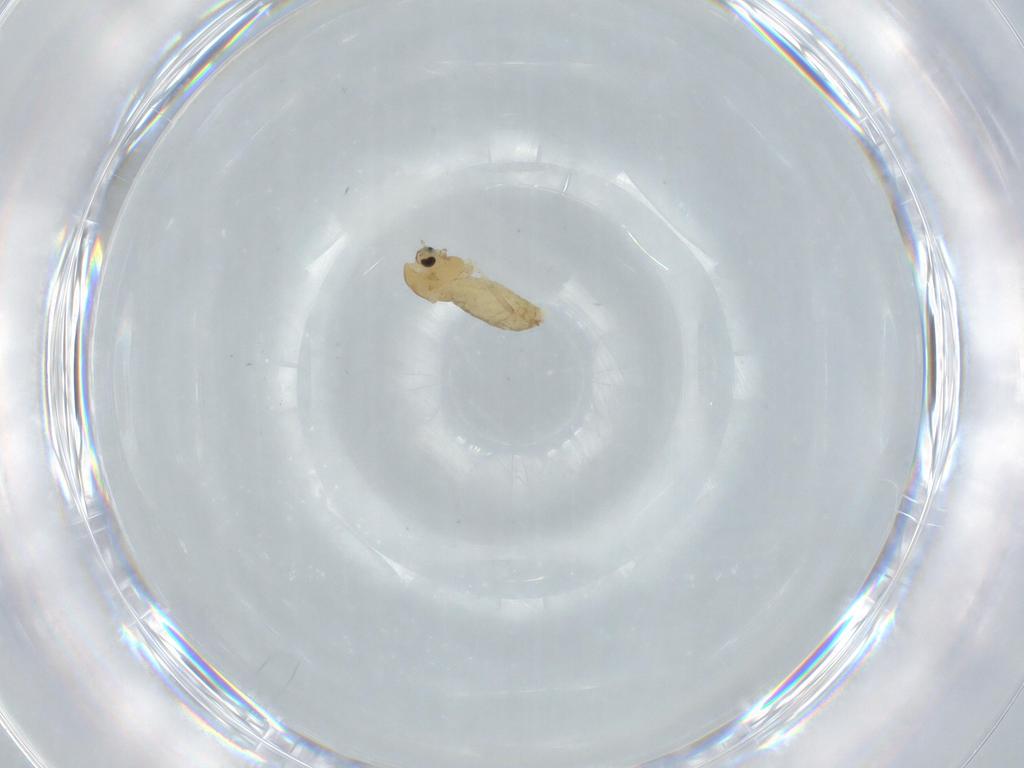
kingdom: Animalia
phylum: Arthropoda
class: Insecta
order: Diptera
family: Chironomidae
